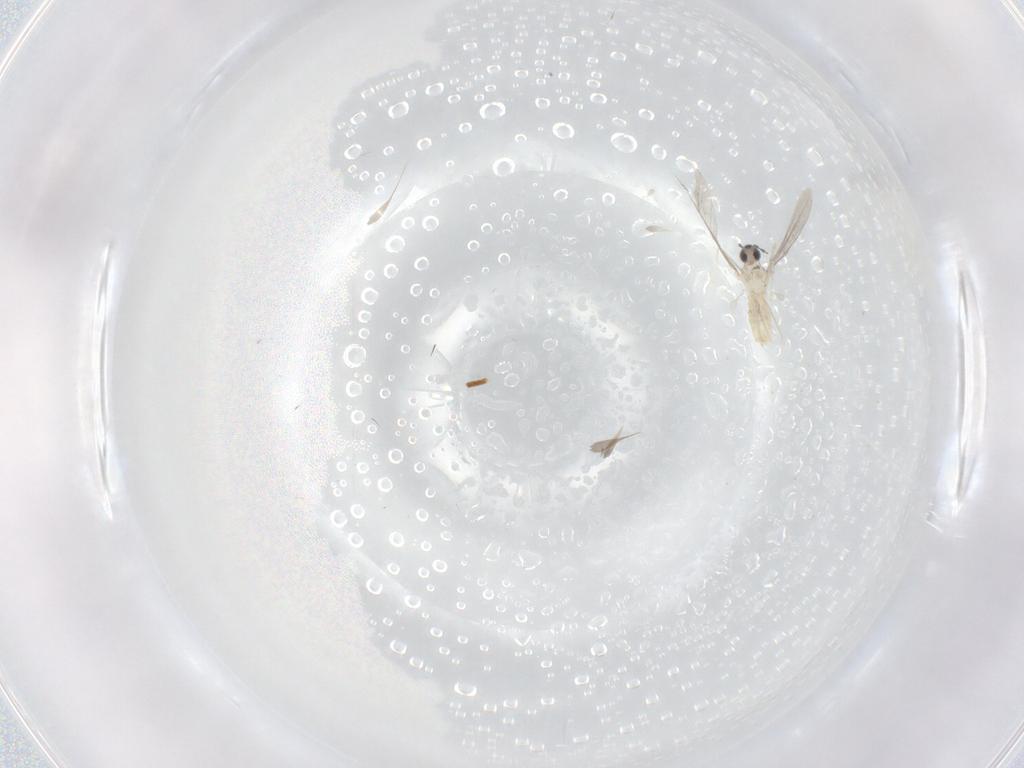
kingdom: Animalia
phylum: Arthropoda
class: Insecta
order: Diptera
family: Cecidomyiidae
